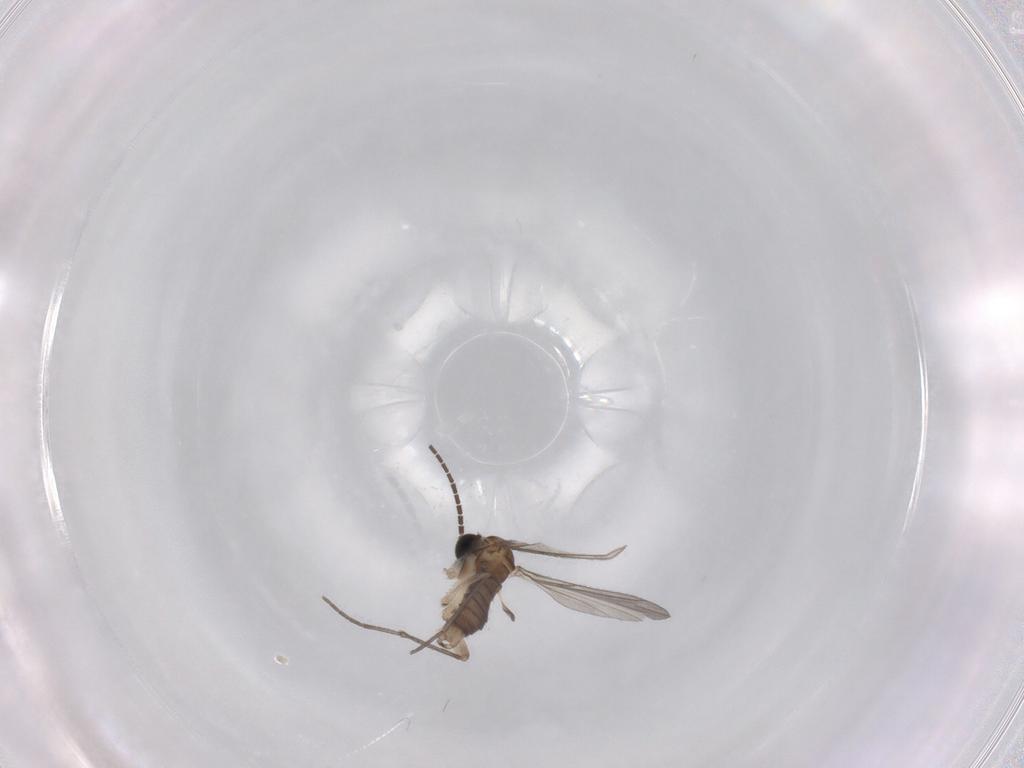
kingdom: Animalia
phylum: Arthropoda
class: Insecta
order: Diptera
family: Sciaridae
